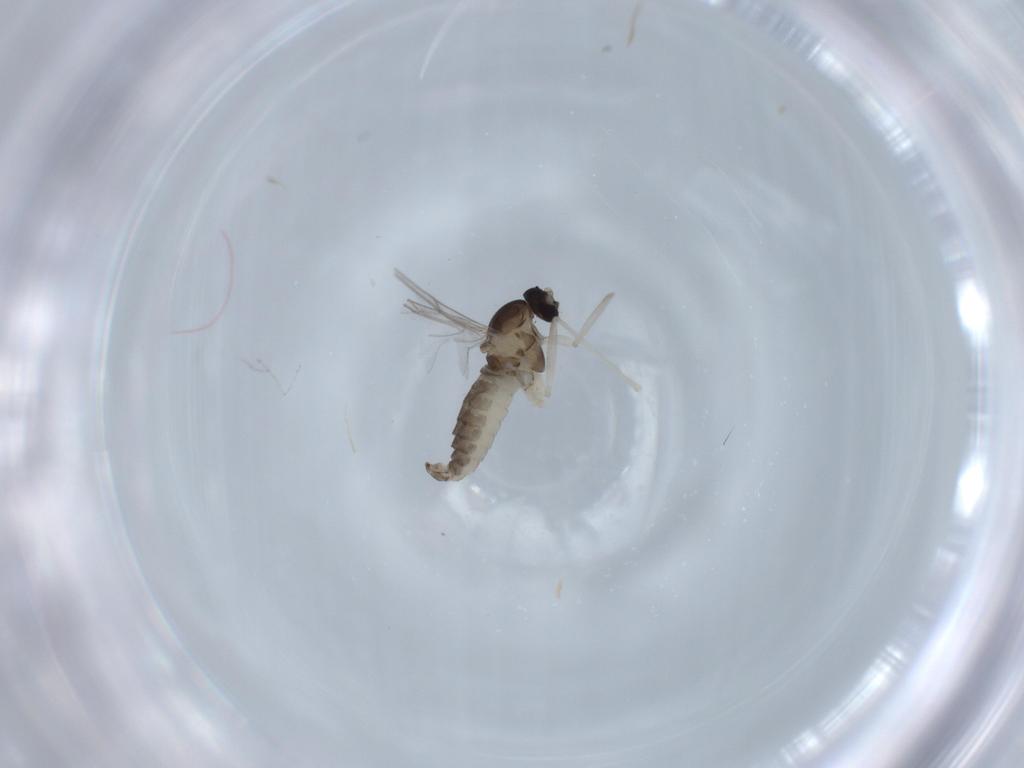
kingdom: Animalia
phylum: Arthropoda
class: Insecta
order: Diptera
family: Cecidomyiidae
